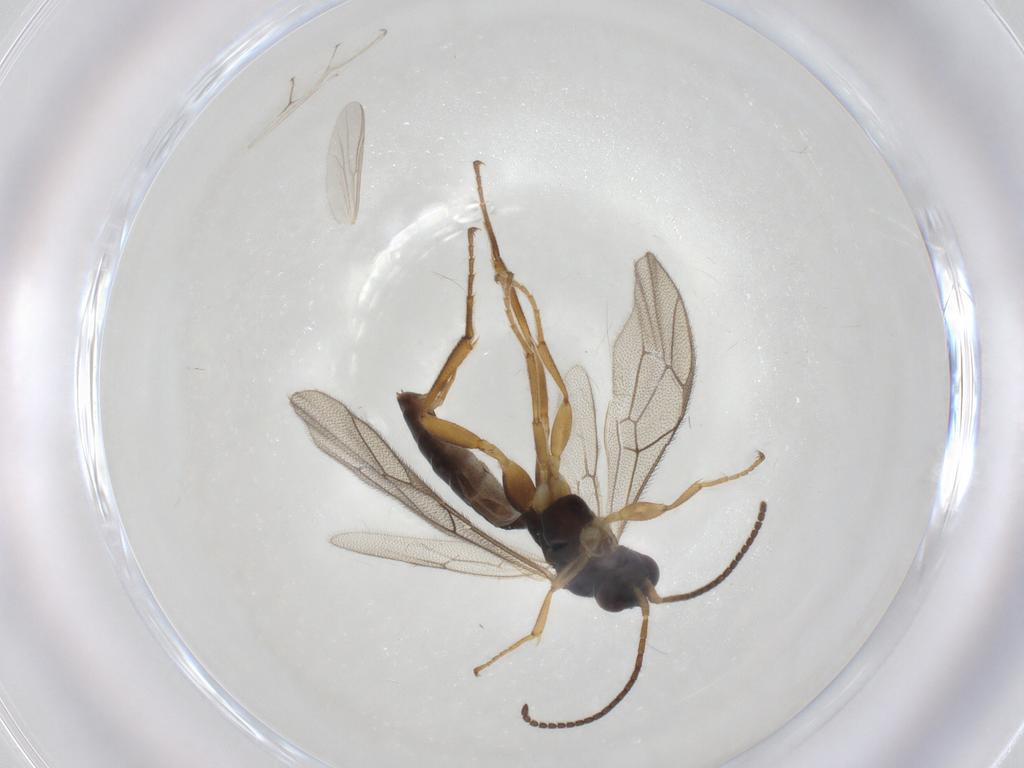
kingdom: Animalia
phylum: Arthropoda
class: Insecta
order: Hymenoptera
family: Ichneumonidae
